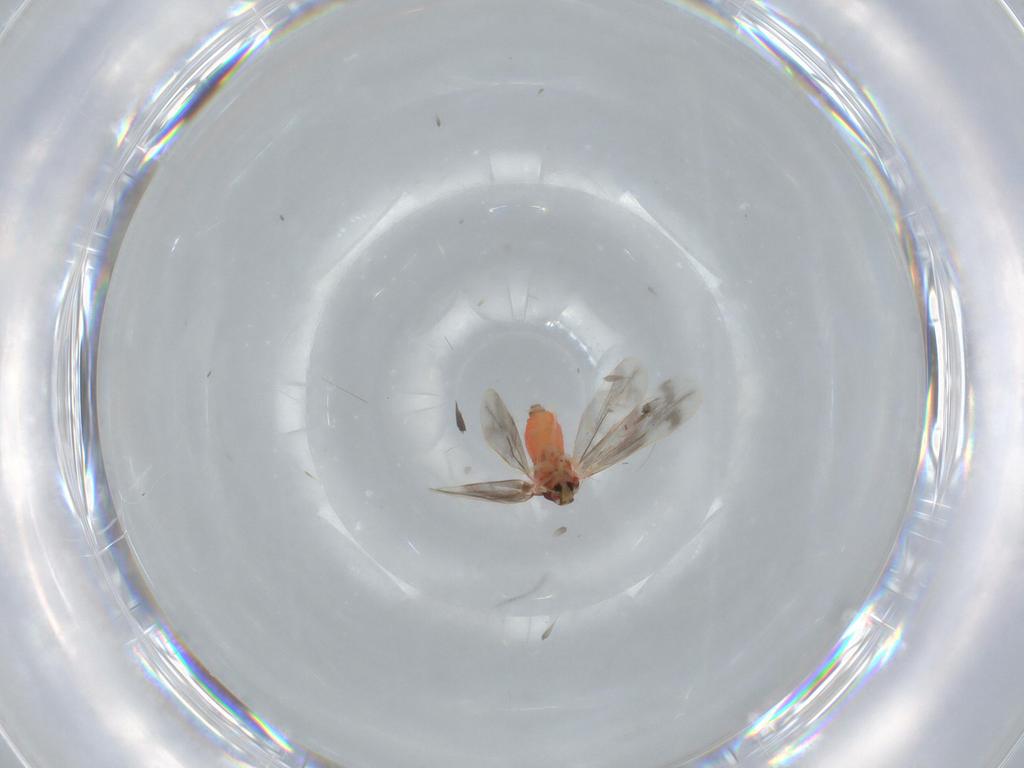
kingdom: Animalia
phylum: Arthropoda
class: Insecta
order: Hemiptera
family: Aleyrodidae
